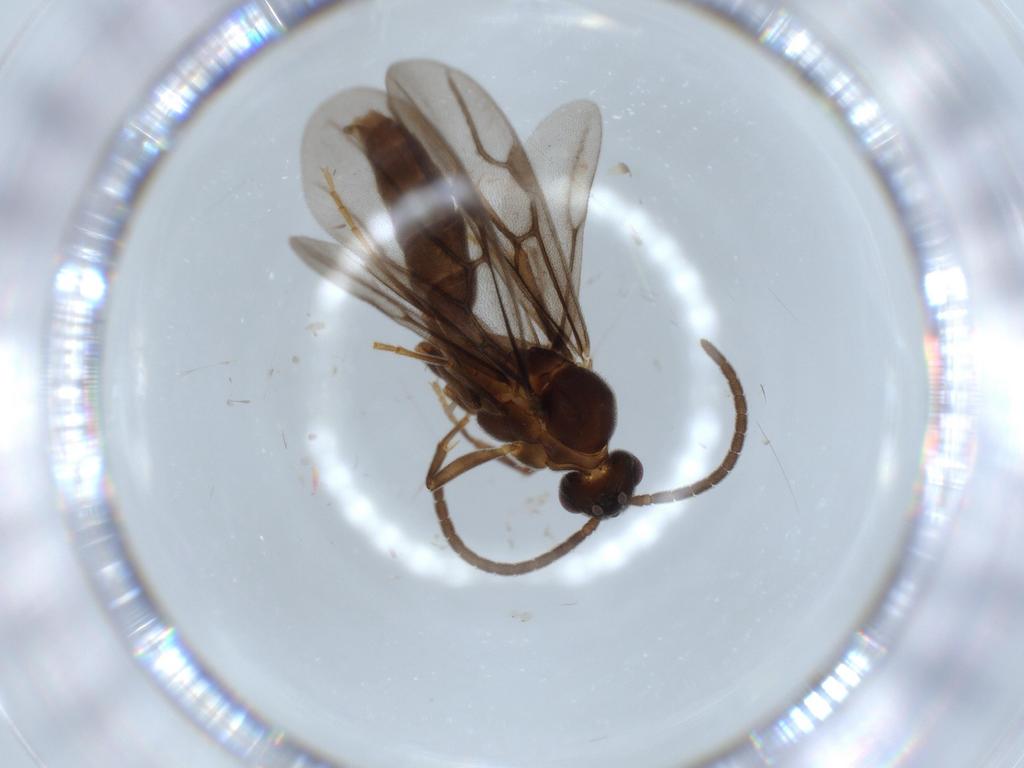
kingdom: Animalia
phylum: Arthropoda
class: Insecta
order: Hymenoptera
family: Formicidae
